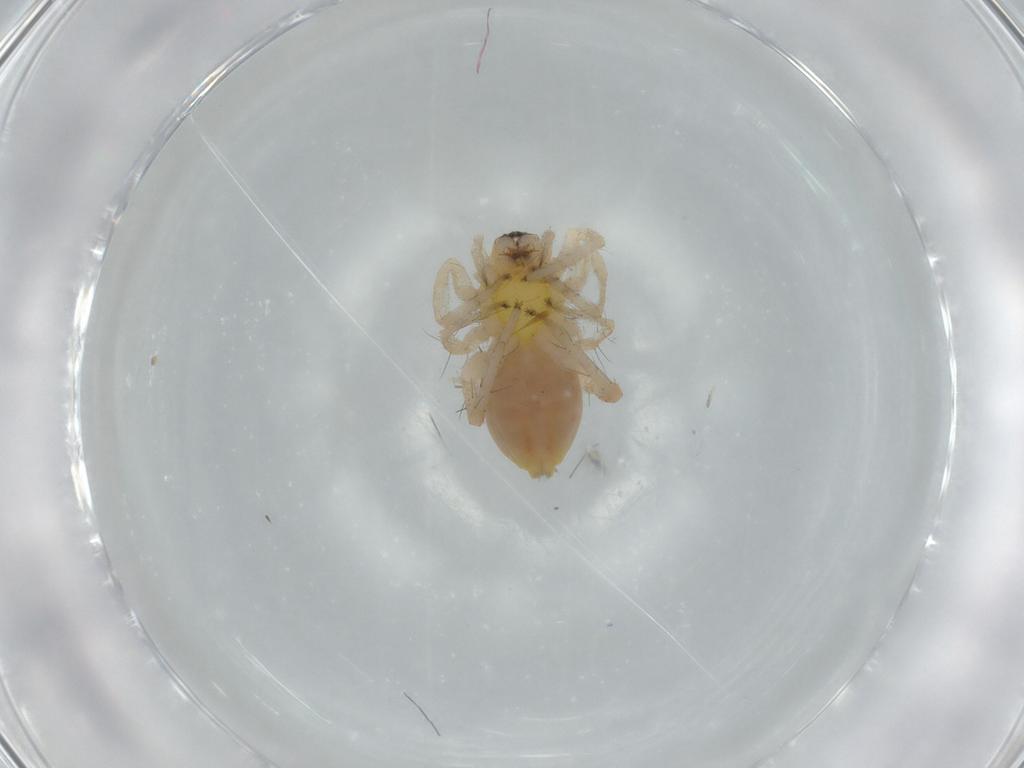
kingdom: Animalia
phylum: Arthropoda
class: Arachnida
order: Araneae
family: Anyphaenidae
